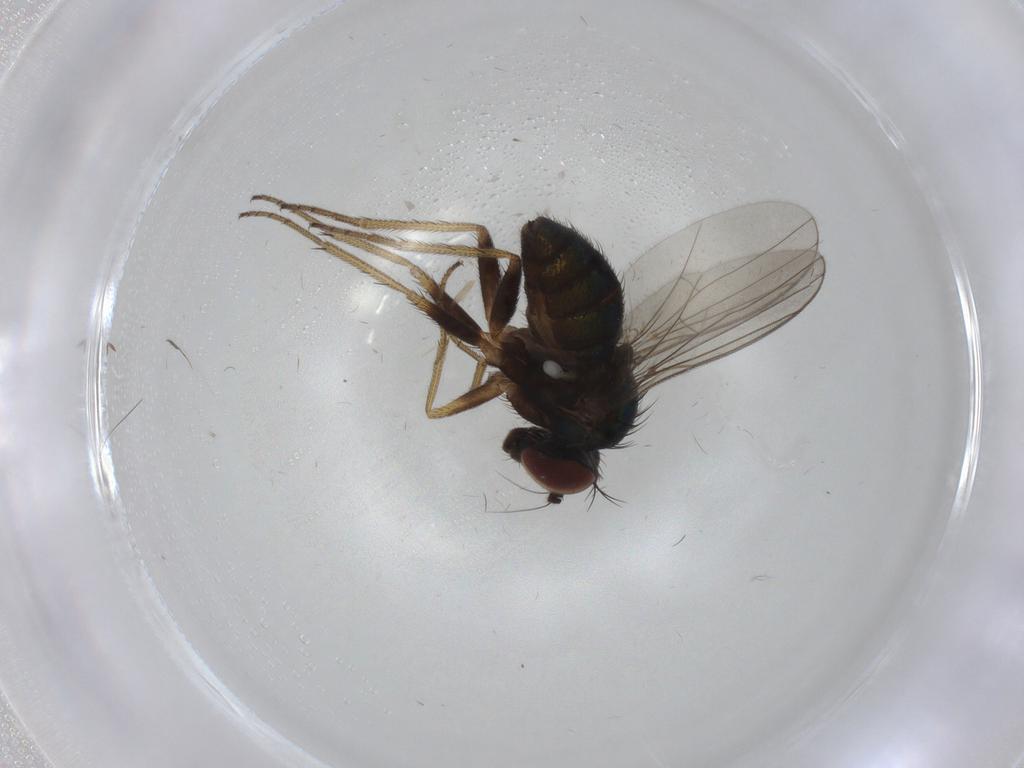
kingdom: Animalia
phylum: Arthropoda
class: Insecta
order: Diptera
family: Psychodidae
